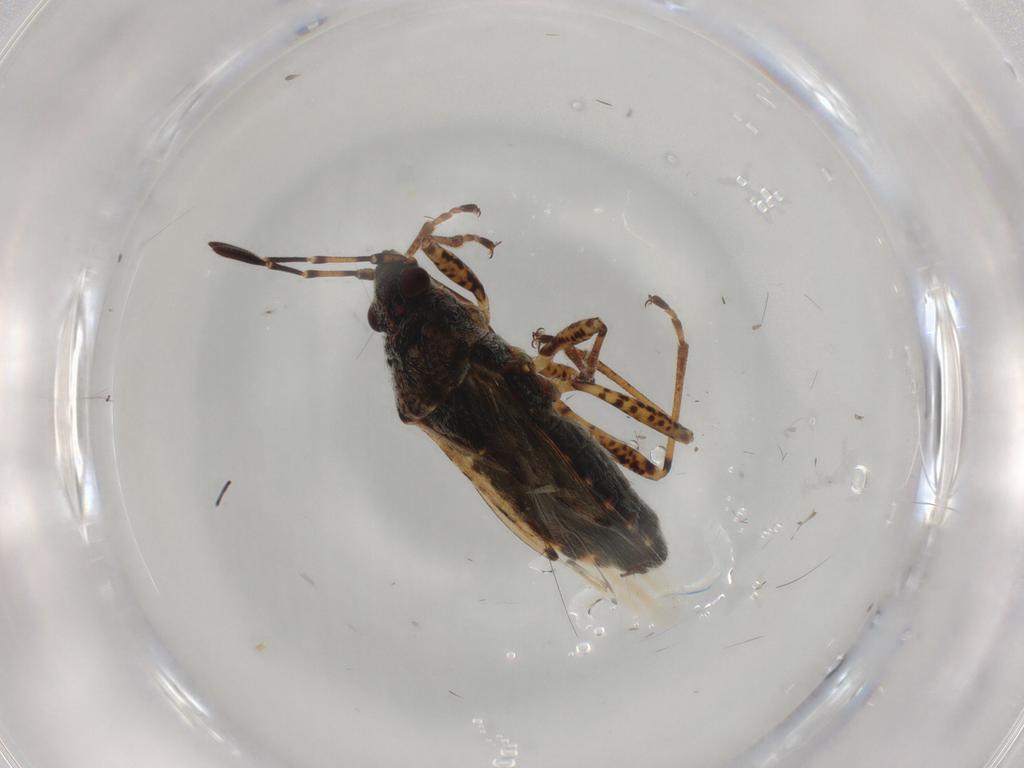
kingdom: Animalia
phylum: Arthropoda
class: Insecta
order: Hemiptera
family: Lygaeidae
